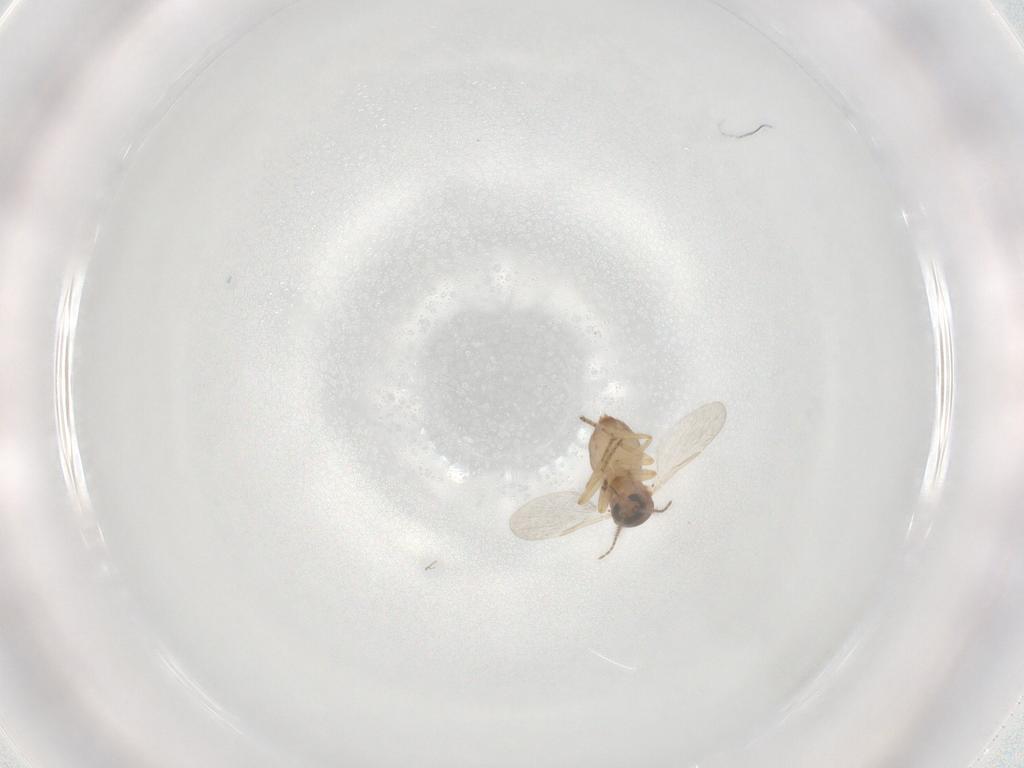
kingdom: Animalia
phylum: Arthropoda
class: Insecta
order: Diptera
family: Ceratopogonidae
